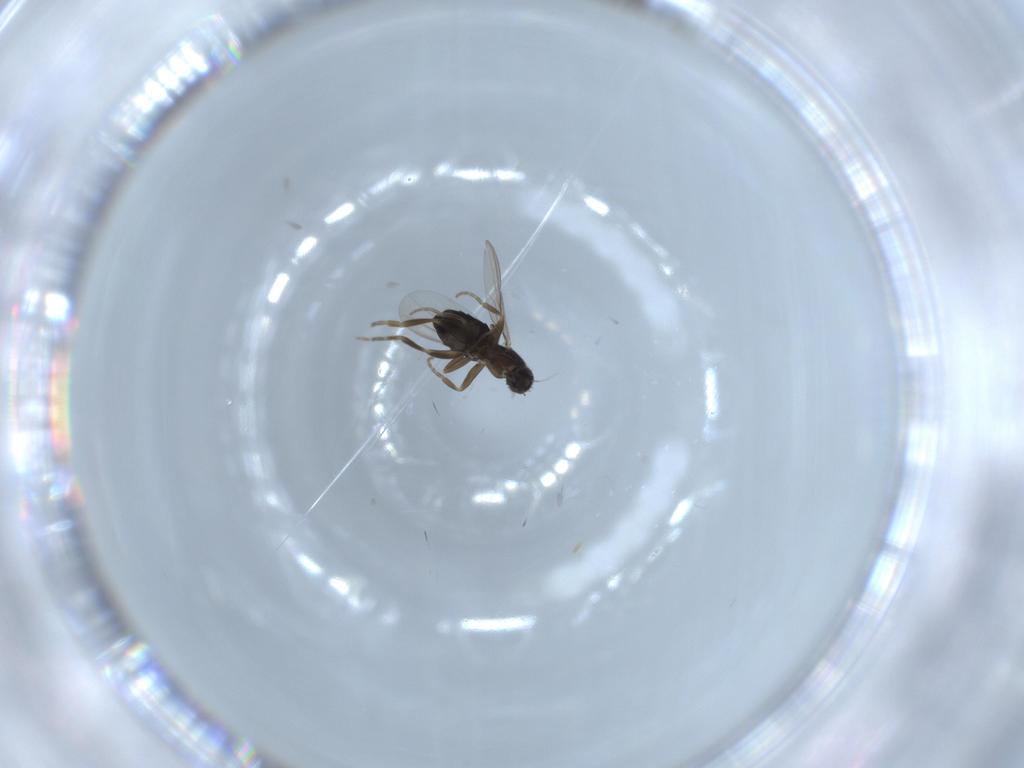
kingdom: Animalia
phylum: Arthropoda
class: Insecta
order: Diptera
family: Phoridae
